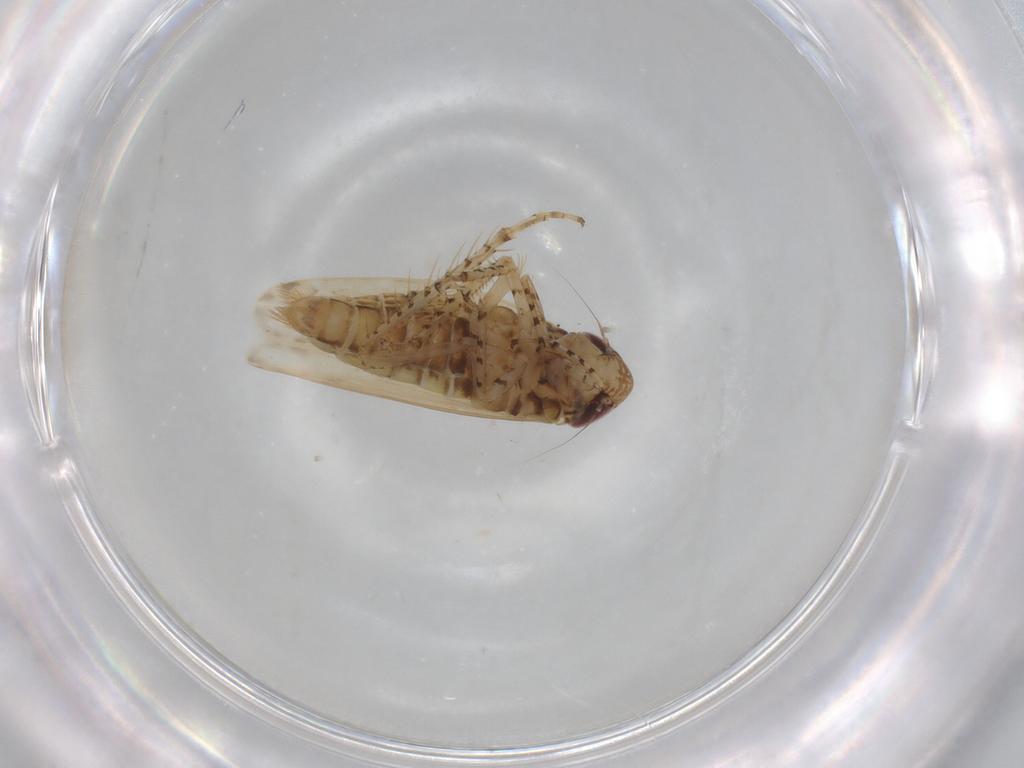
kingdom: Animalia
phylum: Arthropoda
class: Insecta
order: Hemiptera
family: Cicadellidae
